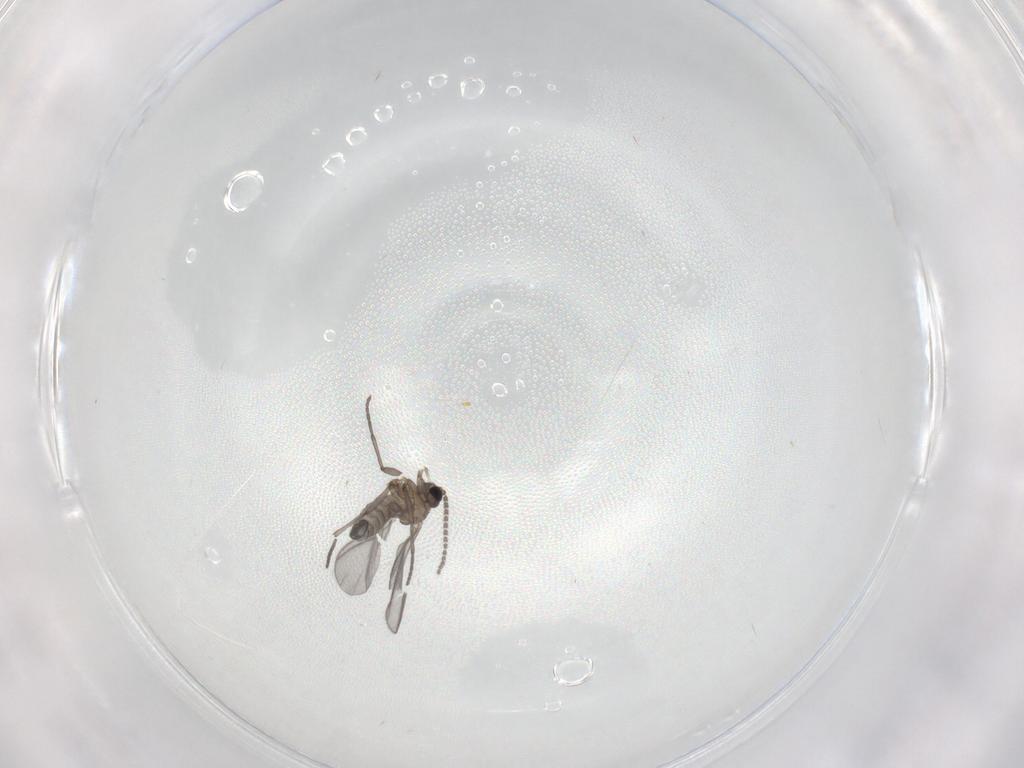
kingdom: Animalia
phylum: Arthropoda
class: Insecta
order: Diptera
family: Sciaridae
